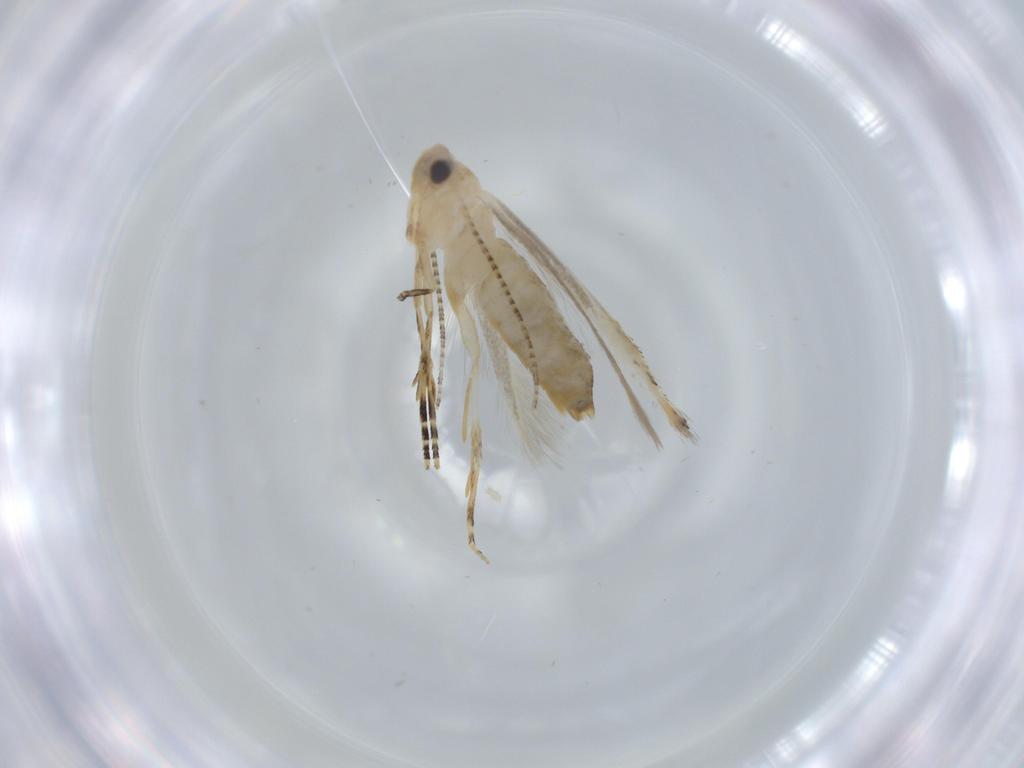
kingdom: Animalia
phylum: Arthropoda
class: Insecta
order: Lepidoptera
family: Bucculatricidae
